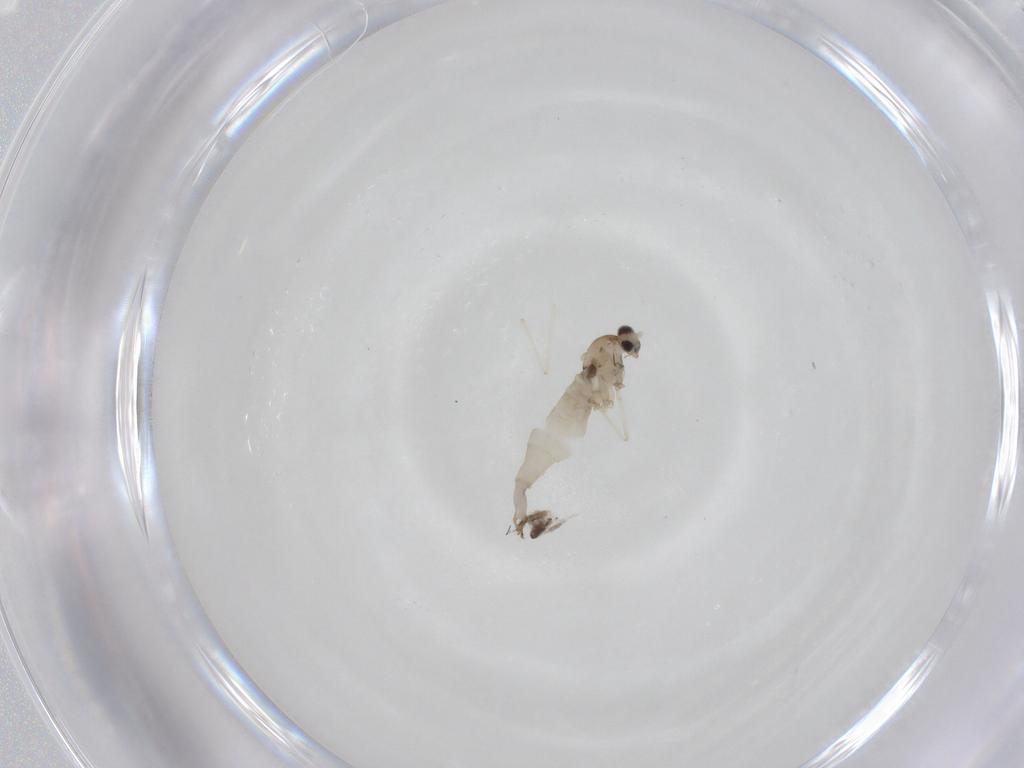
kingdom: Animalia
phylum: Arthropoda
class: Insecta
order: Diptera
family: Cecidomyiidae
